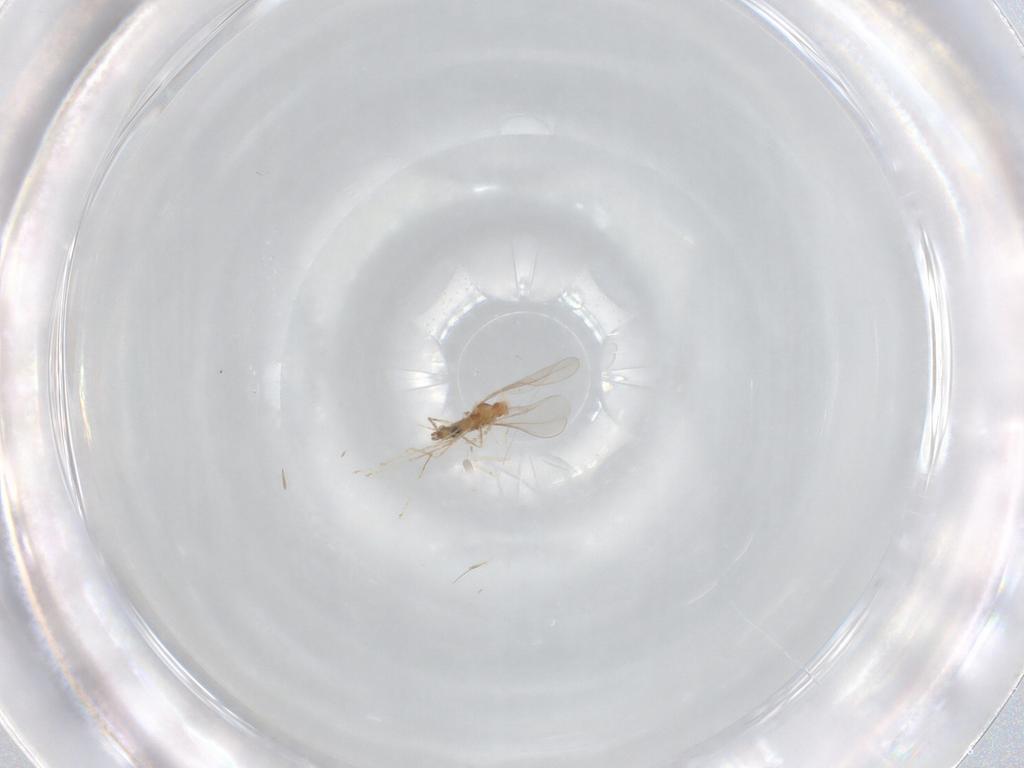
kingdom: Animalia
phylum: Arthropoda
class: Insecta
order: Diptera
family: Cecidomyiidae
